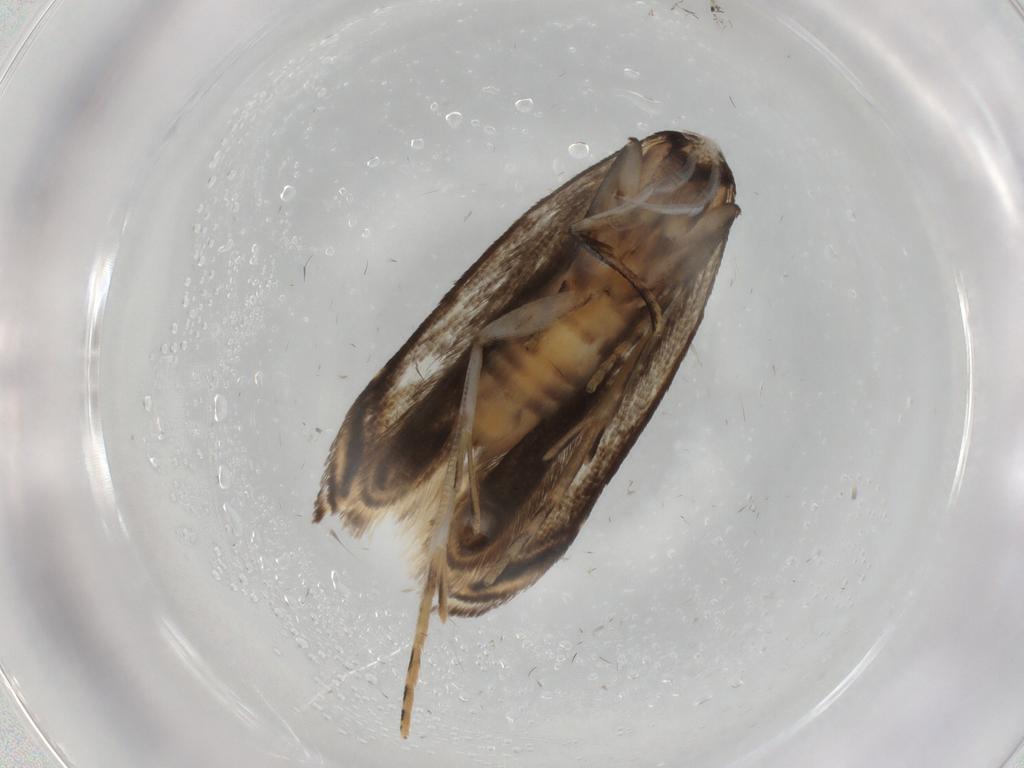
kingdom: Animalia
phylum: Arthropoda
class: Insecta
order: Lepidoptera
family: Gelechiidae
